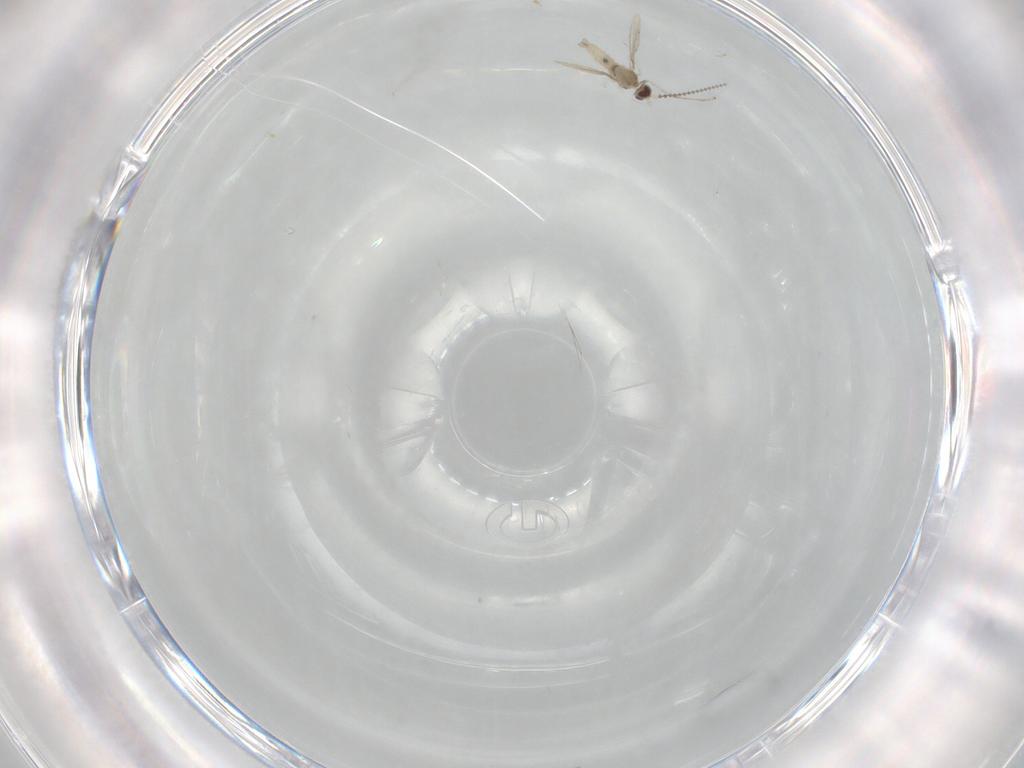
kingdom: Animalia
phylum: Arthropoda
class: Insecta
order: Diptera
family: Cecidomyiidae
